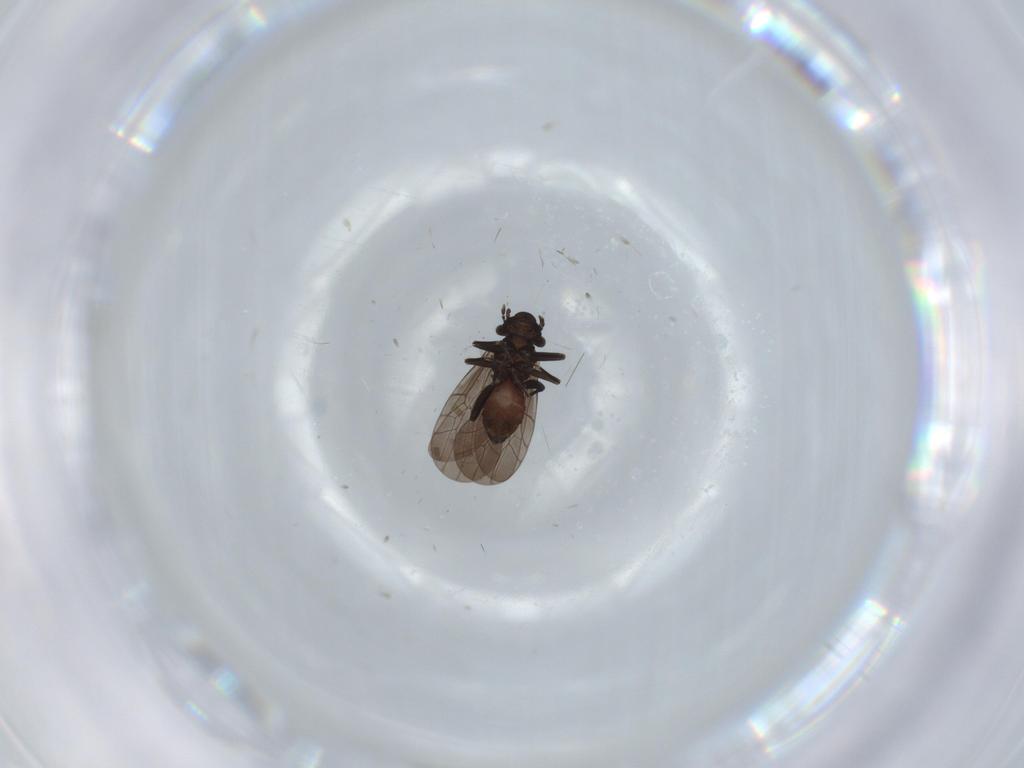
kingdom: Animalia
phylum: Arthropoda
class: Insecta
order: Psocodea
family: Lepidopsocidae
